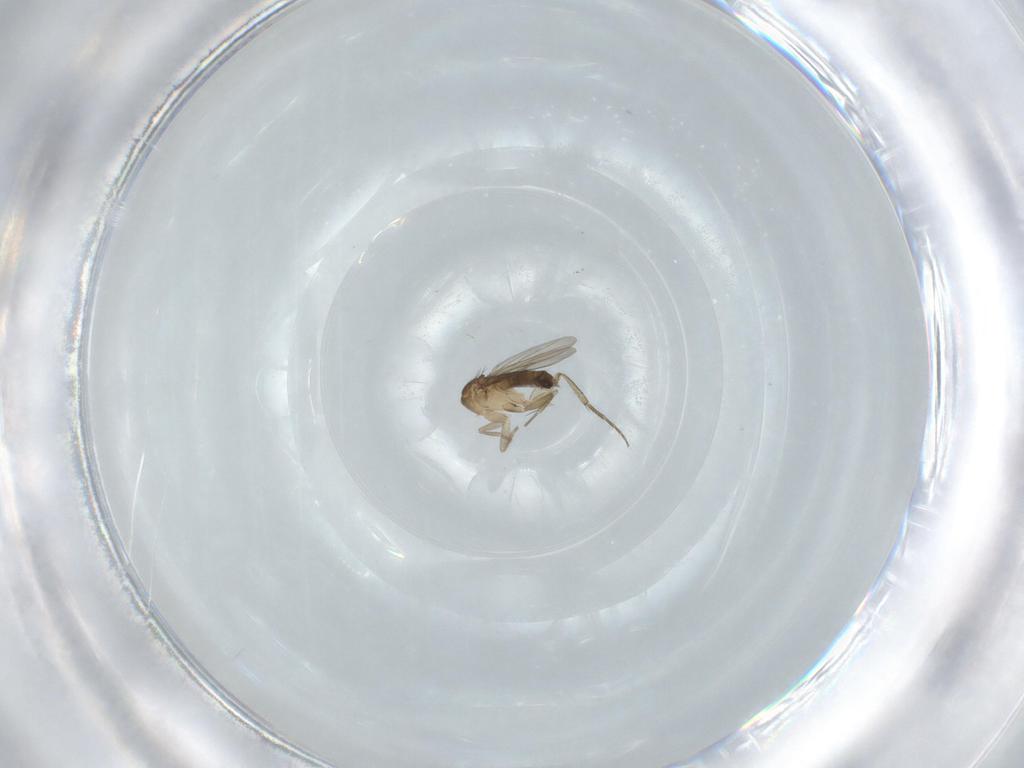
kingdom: Animalia
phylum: Arthropoda
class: Insecta
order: Diptera
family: Phoridae
